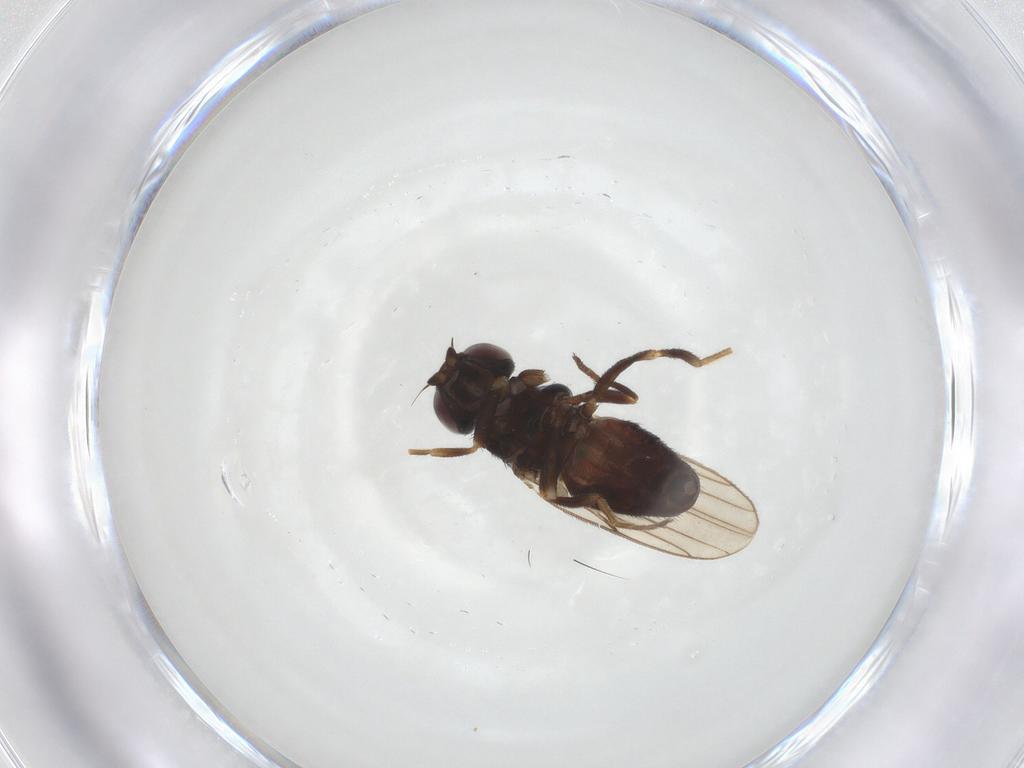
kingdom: Animalia
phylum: Arthropoda
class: Insecta
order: Diptera
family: Chloropidae
